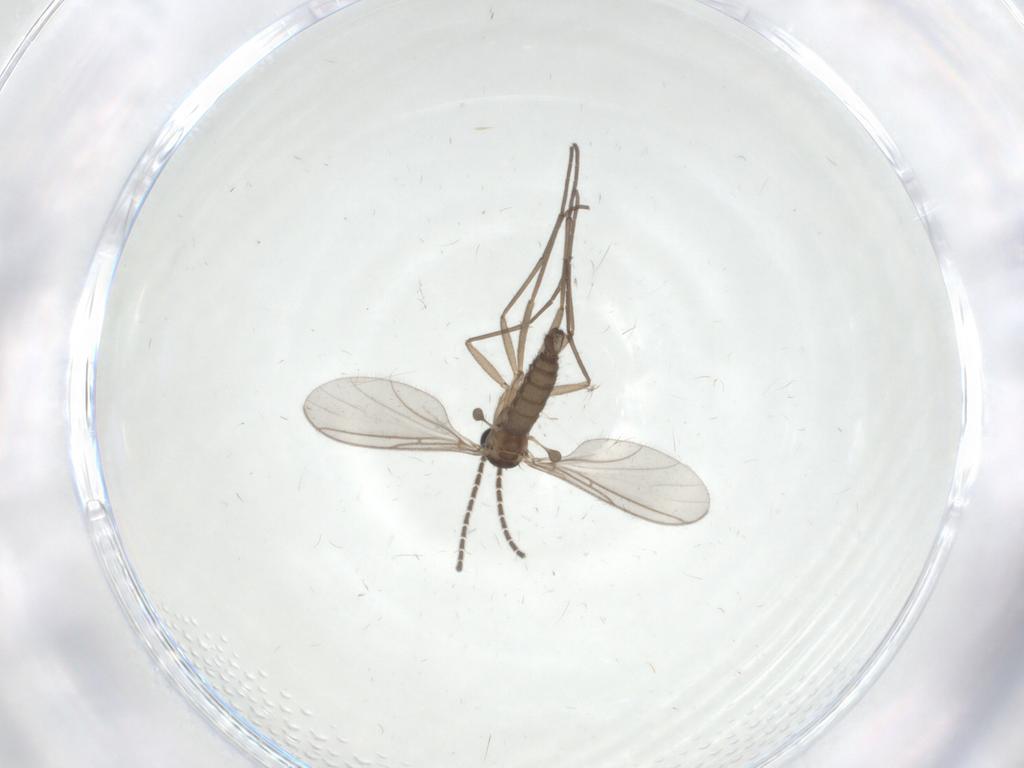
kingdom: Animalia
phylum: Arthropoda
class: Insecta
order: Diptera
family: Sciaridae
